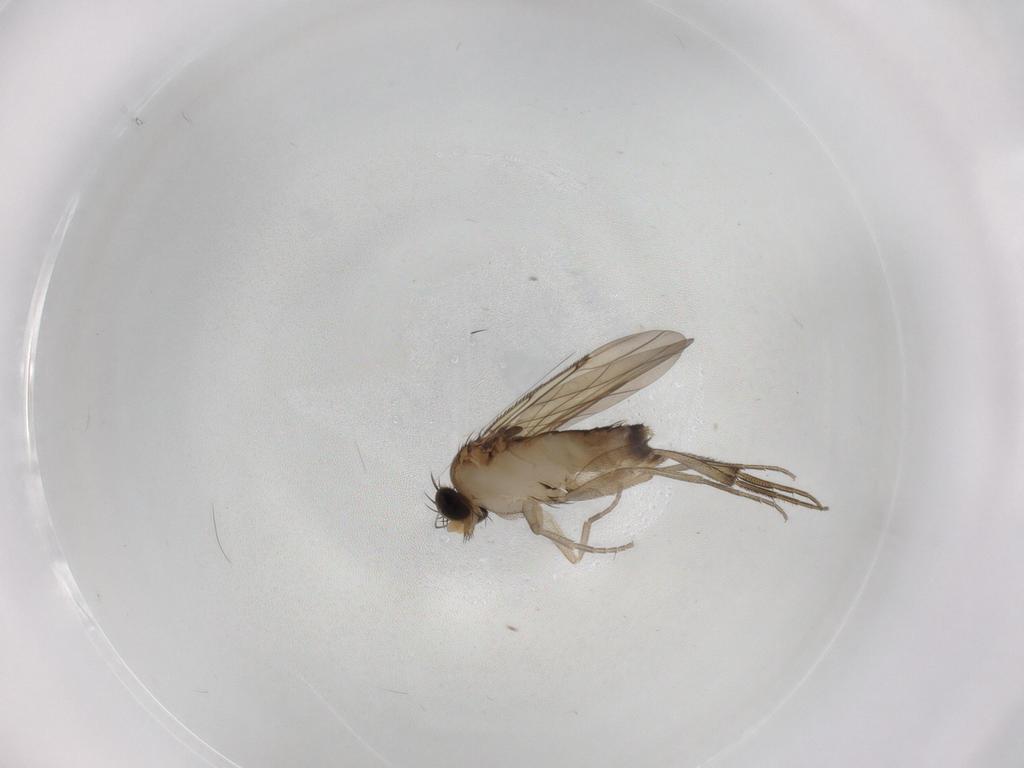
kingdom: Animalia
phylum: Arthropoda
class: Insecta
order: Diptera
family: Phoridae
